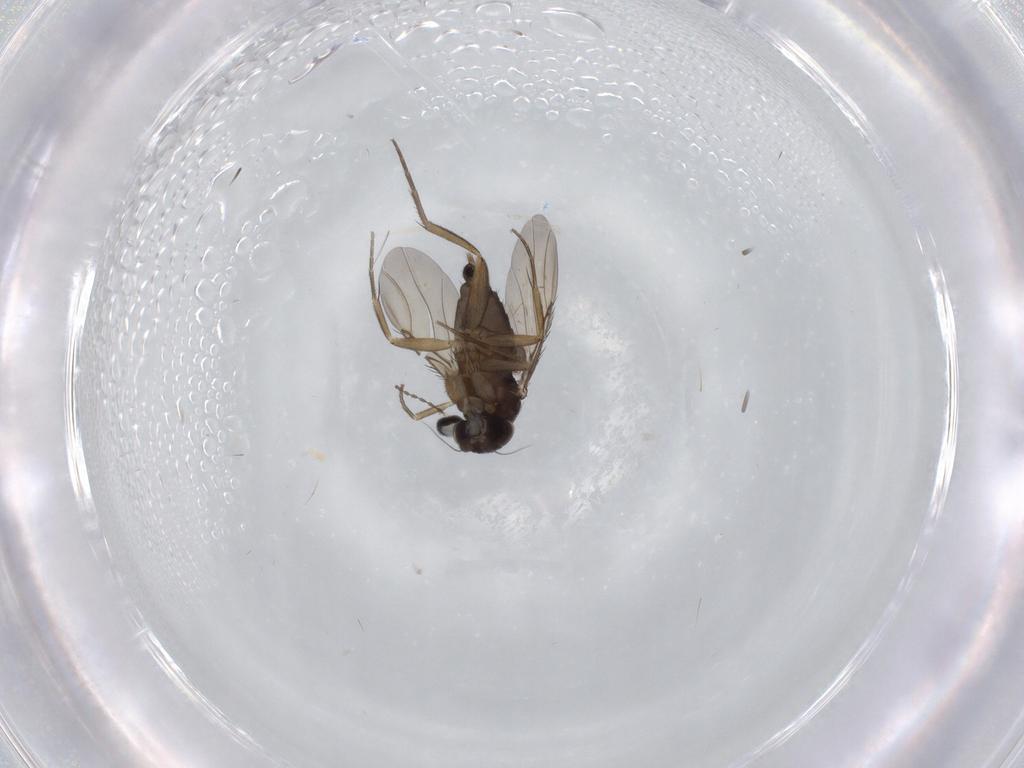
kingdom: Animalia
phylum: Arthropoda
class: Insecta
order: Diptera
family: Phoridae
